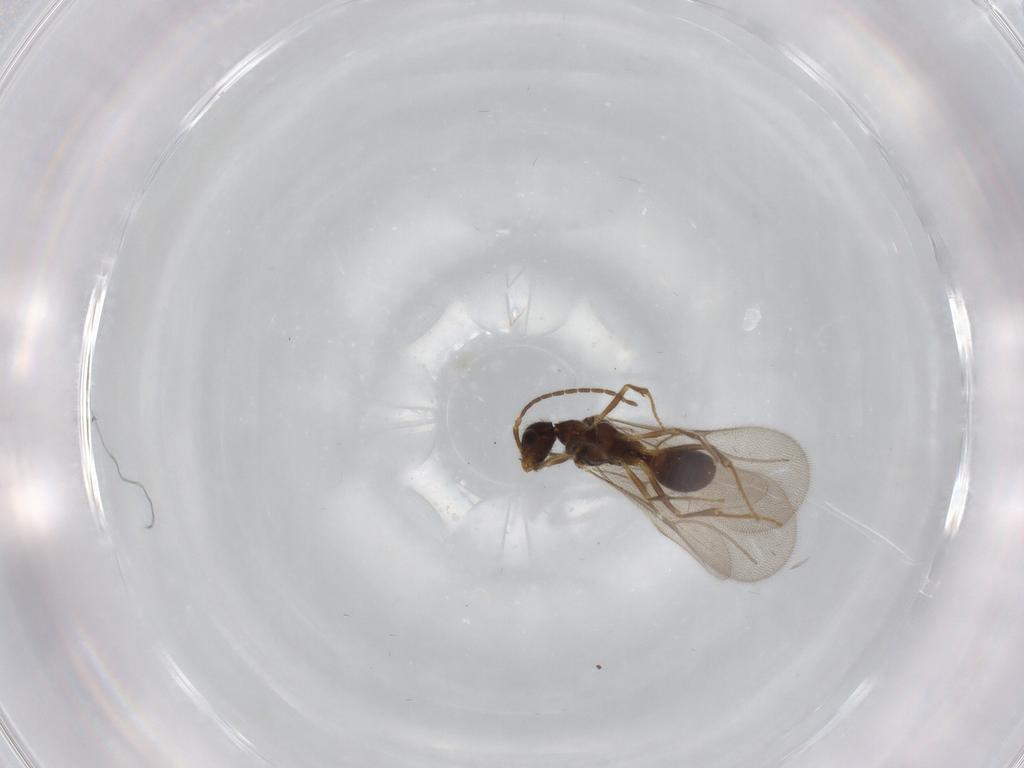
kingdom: Animalia
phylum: Arthropoda
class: Insecta
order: Hymenoptera
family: Bethylidae
